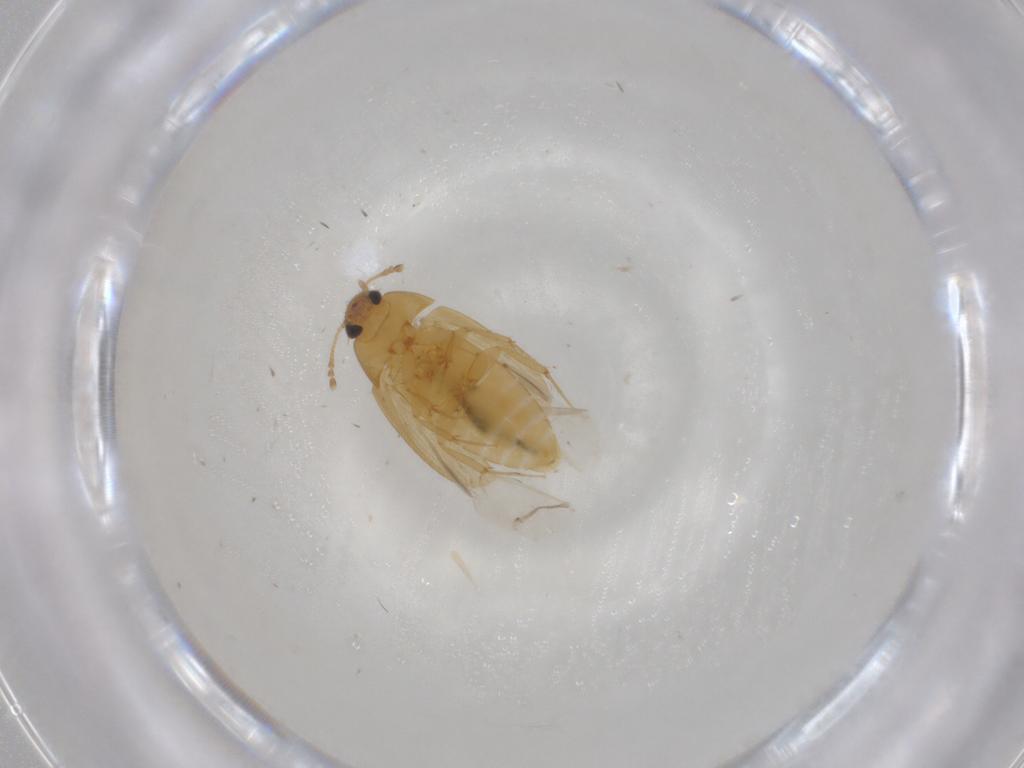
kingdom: Animalia
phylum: Arthropoda
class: Insecta
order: Coleoptera
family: Mycetophagidae
